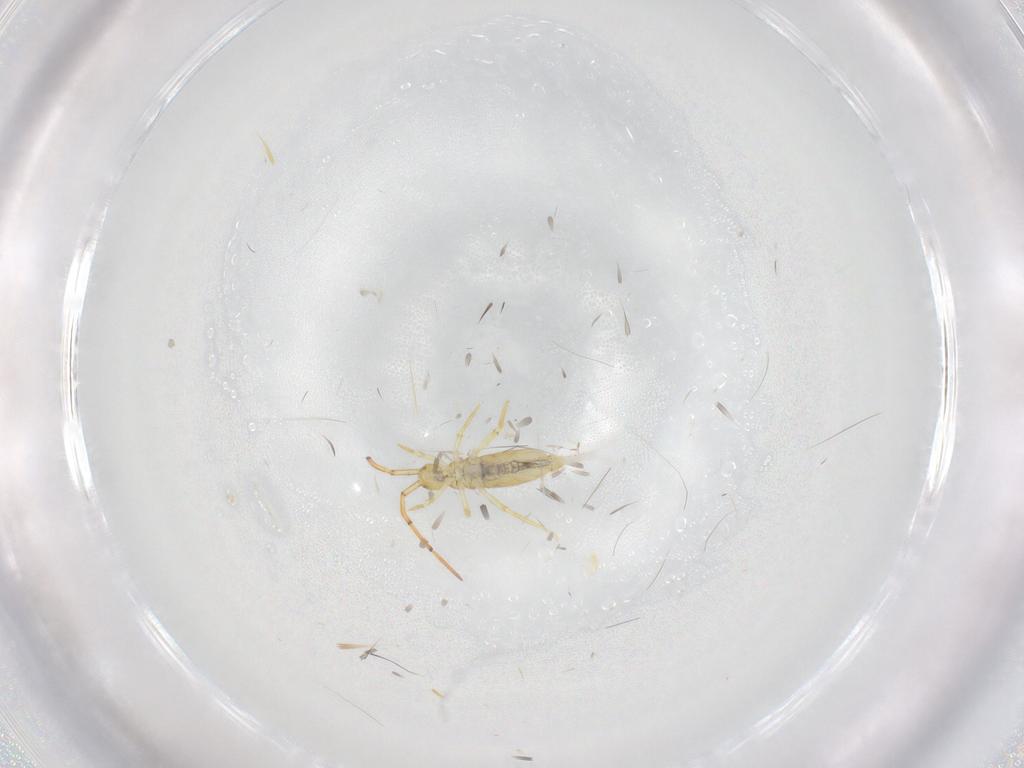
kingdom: Animalia
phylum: Arthropoda
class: Collembola
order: Entomobryomorpha
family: Paronellidae
